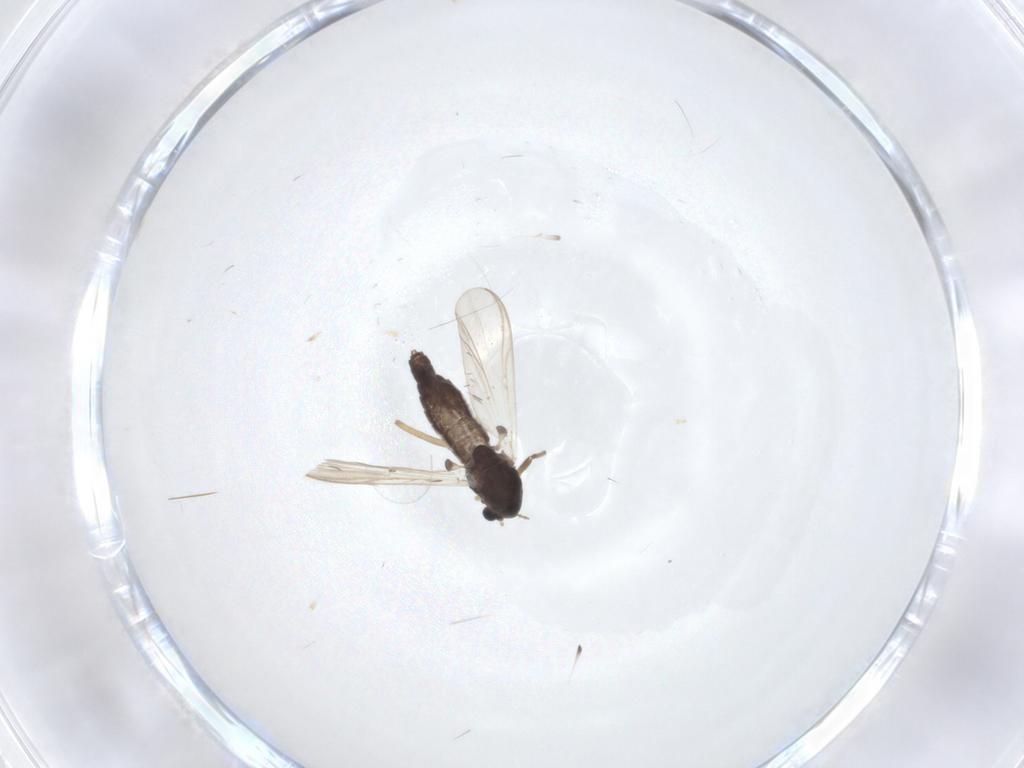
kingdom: Animalia
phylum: Arthropoda
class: Insecta
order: Diptera
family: Chironomidae
